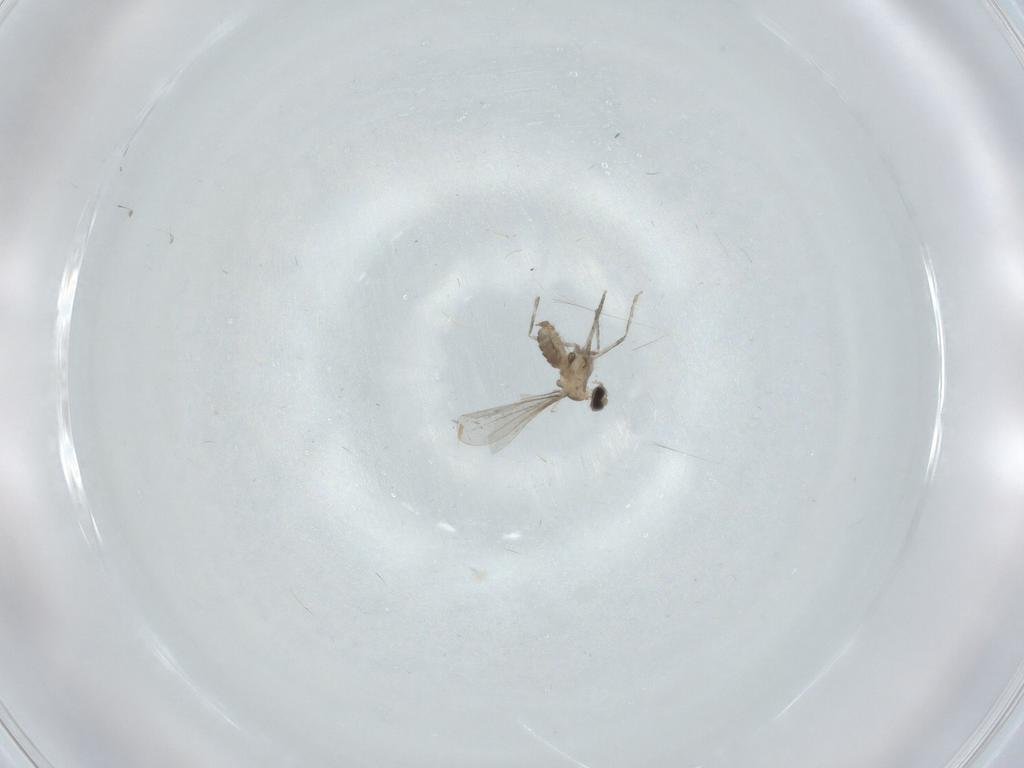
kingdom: Animalia
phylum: Arthropoda
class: Insecta
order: Diptera
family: Cecidomyiidae
